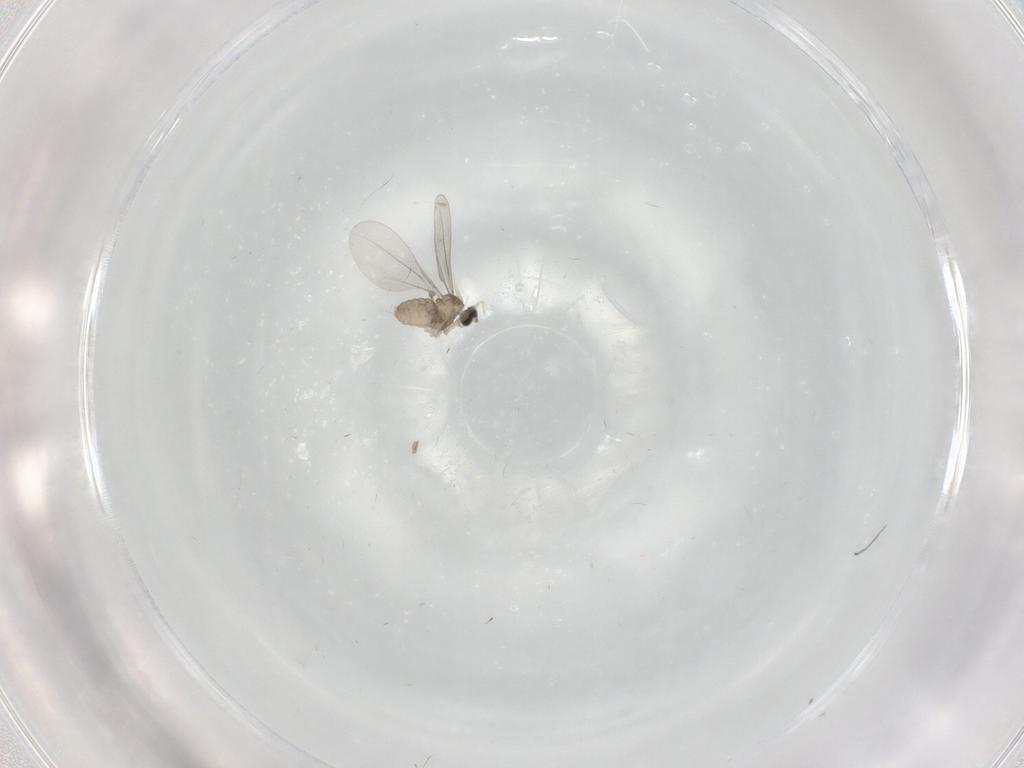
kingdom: Animalia
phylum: Arthropoda
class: Insecta
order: Diptera
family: Cecidomyiidae
